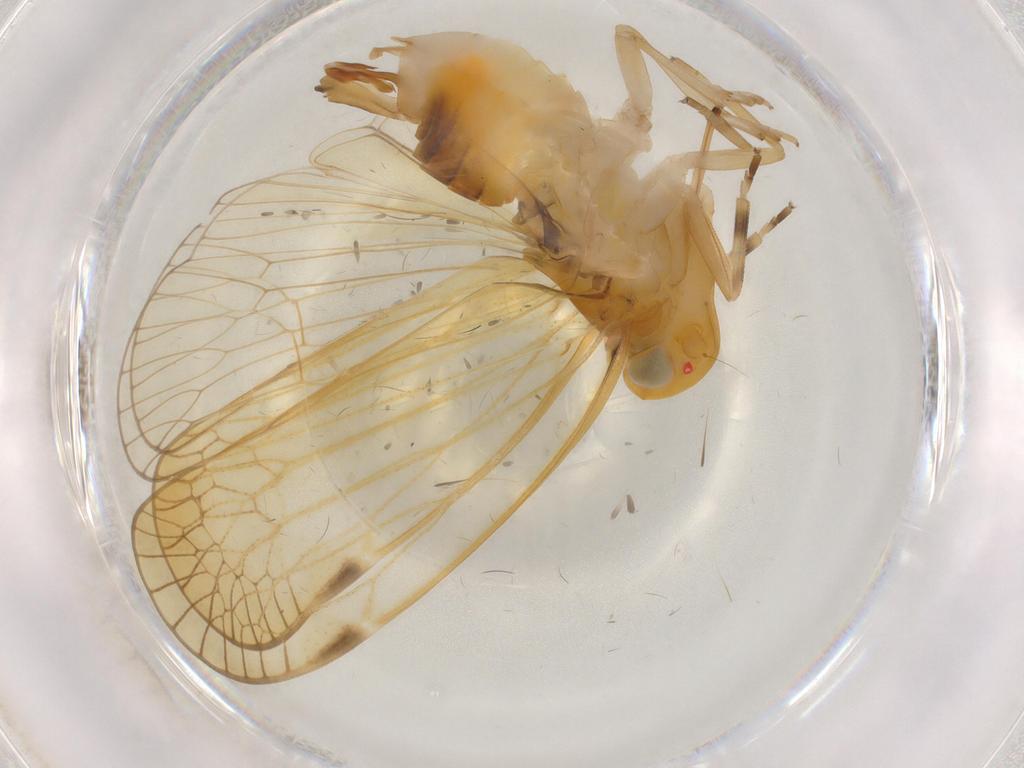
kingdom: Animalia
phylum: Arthropoda
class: Insecta
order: Hemiptera
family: Cixiidae
